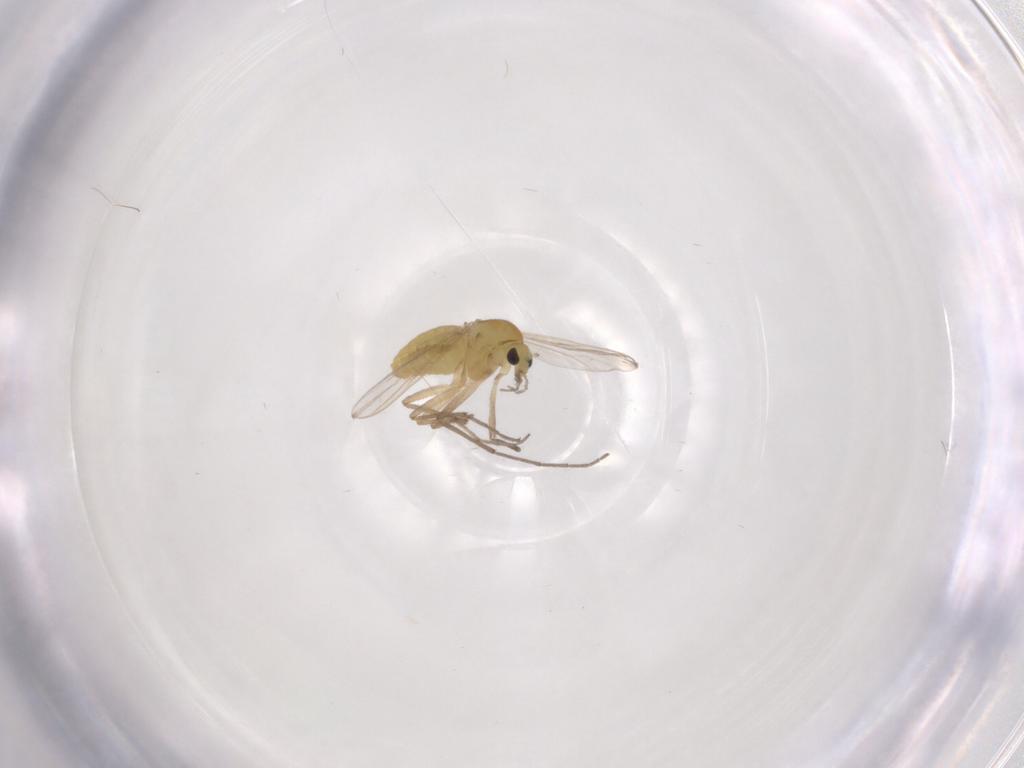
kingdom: Animalia
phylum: Arthropoda
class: Insecta
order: Diptera
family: Chironomidae
